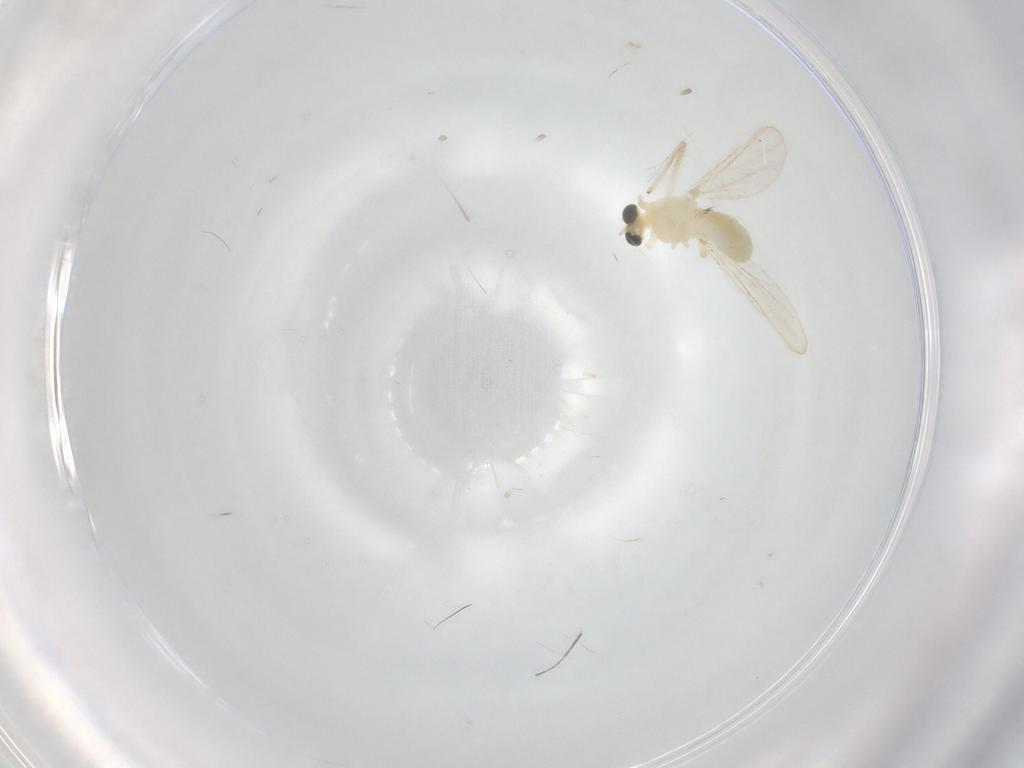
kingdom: Animalia
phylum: Arthropoda
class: Insecta
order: Diptera
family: Chironomidae
